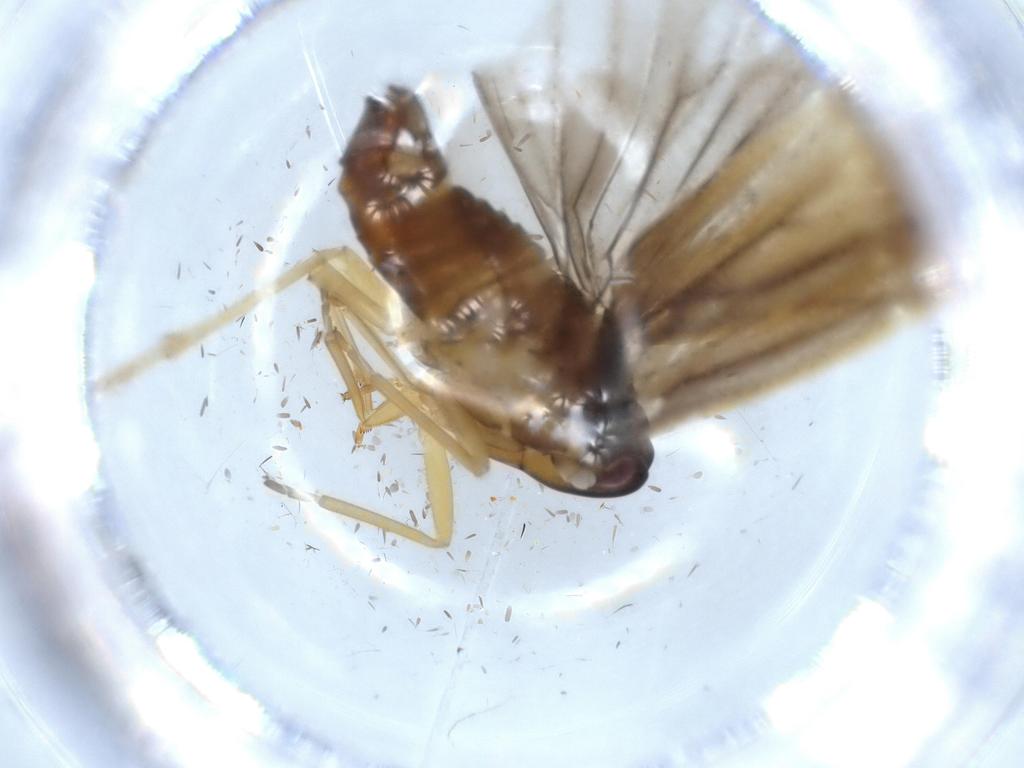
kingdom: Animalia
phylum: Arthropoda
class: Insecta
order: Hemiptera
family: Derbidae
